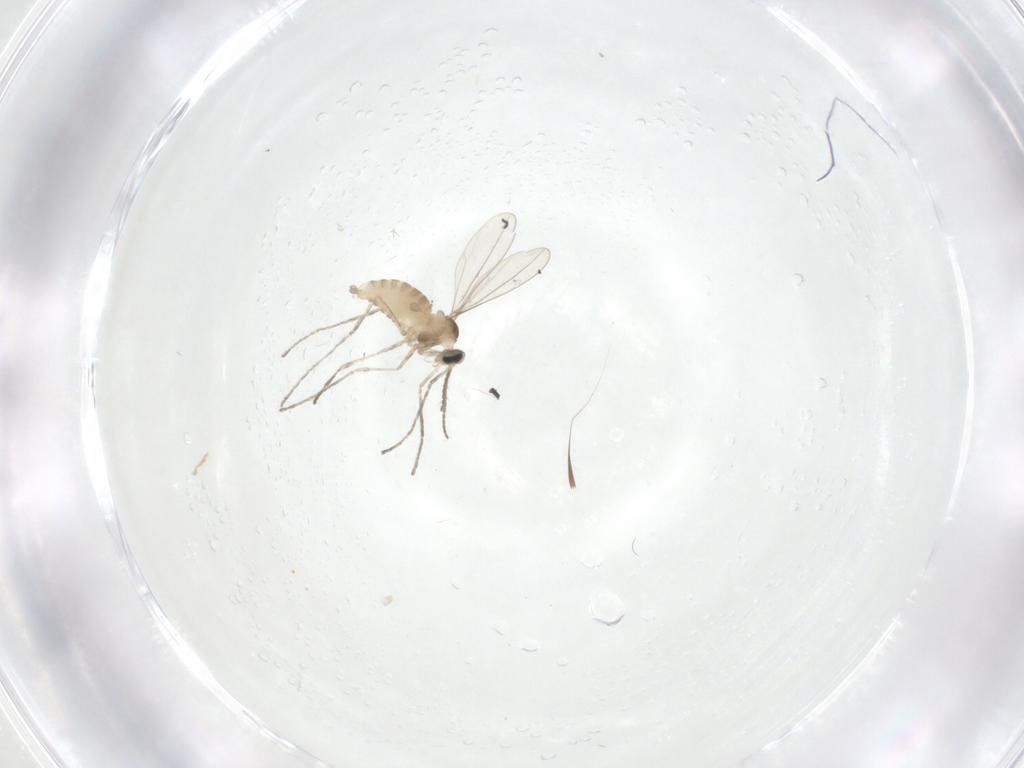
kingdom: Animalia
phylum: Arthropoda
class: Insecta
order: Diptera
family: Cecidomyiidae
